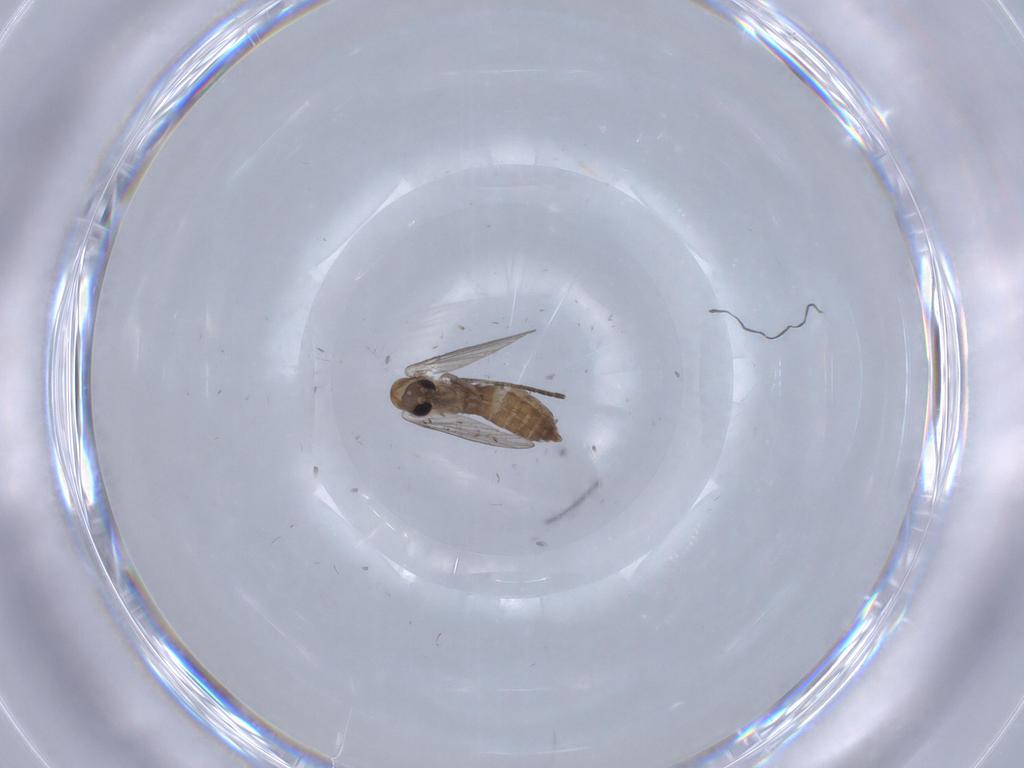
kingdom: Animalia
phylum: Arthropoda
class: Insecta
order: Diptera
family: Psychodidae
